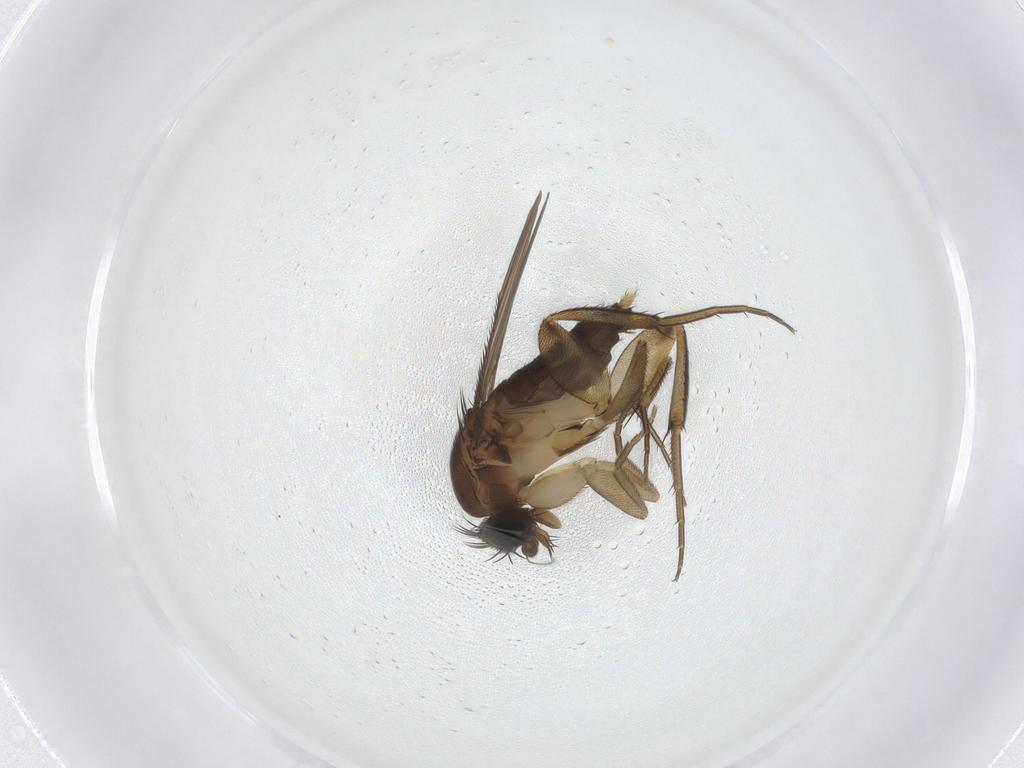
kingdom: Animalia
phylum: Arthropoda
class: Insecta
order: Diptera
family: Phoridae
